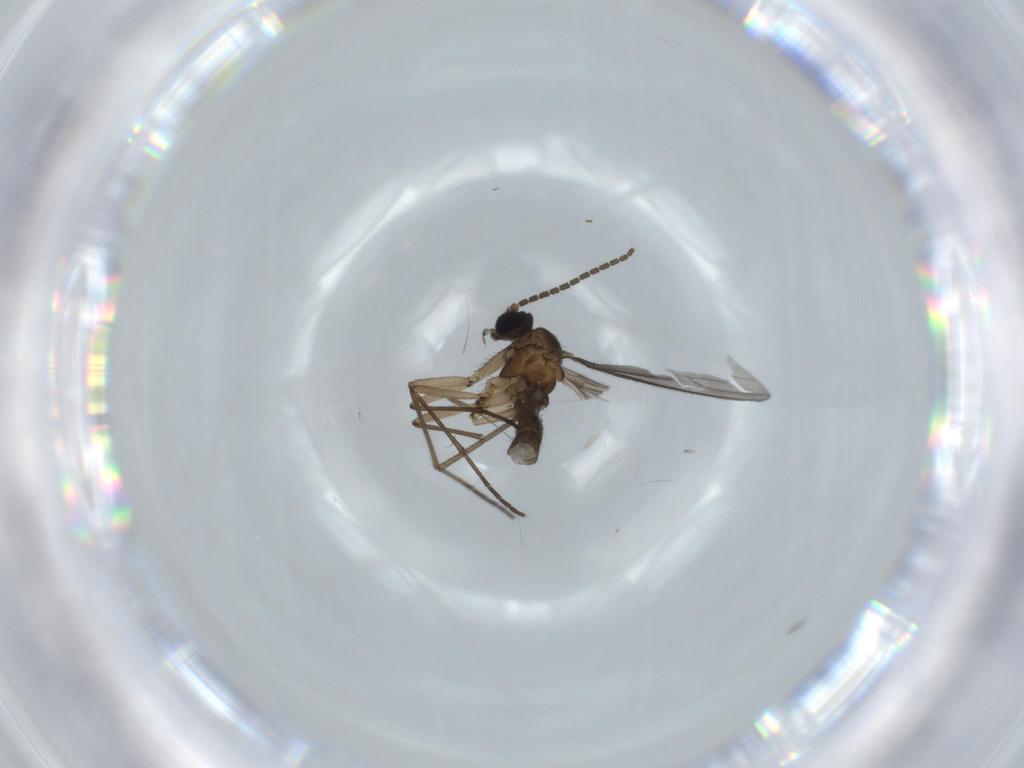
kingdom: Animalia
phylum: Arthropoda
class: Insecta
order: Diptera
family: Sciaridae
